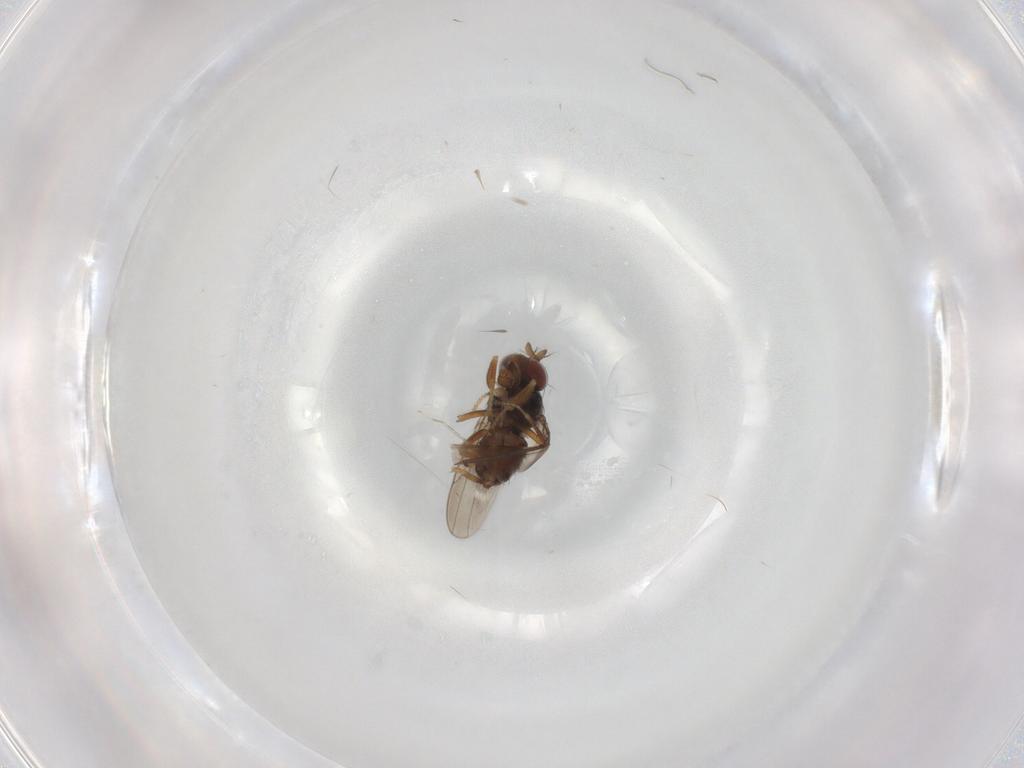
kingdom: Animalia
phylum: Arthropoda
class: Insecta
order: Diptera
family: Ephydridae
